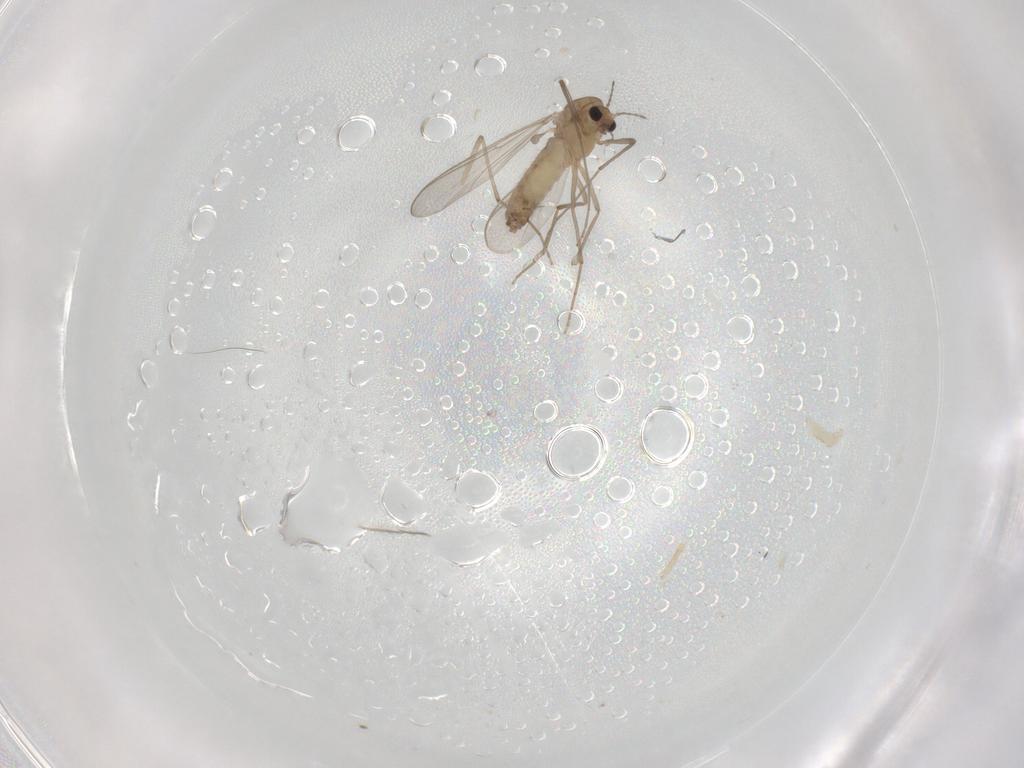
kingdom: Animalia
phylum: Arthropoda
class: Insecta
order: Diptera
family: Chironomidae
